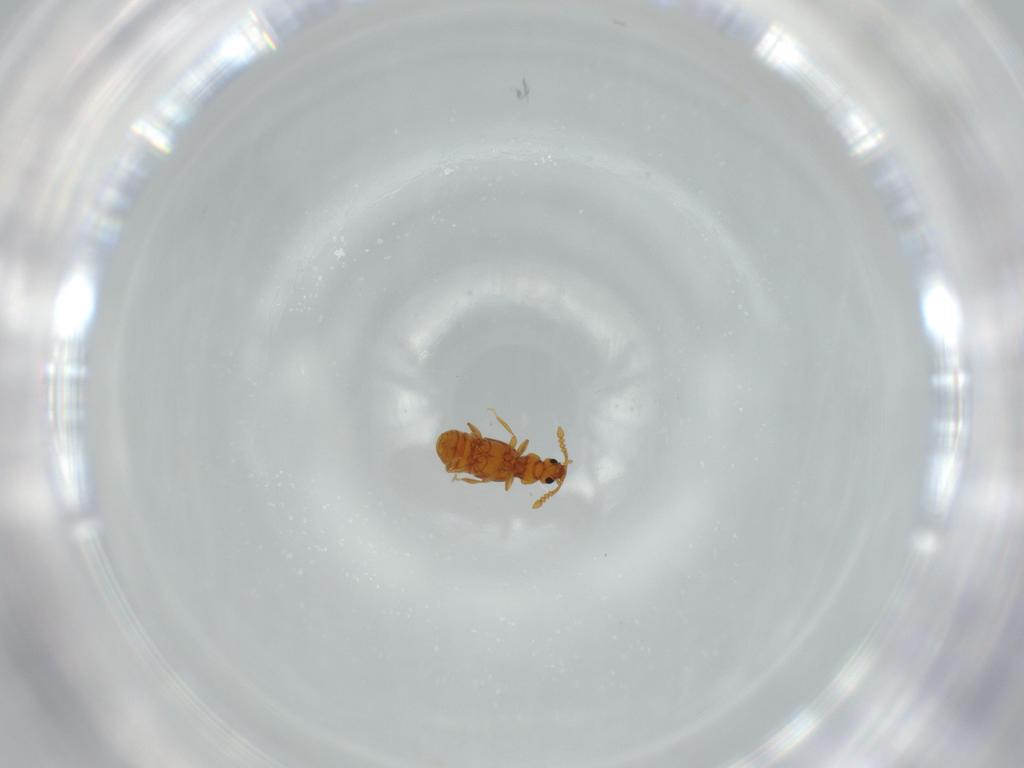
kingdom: Animalia
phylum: Arthropoda
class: Insecta
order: Coleoptera
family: Staphylinidae
